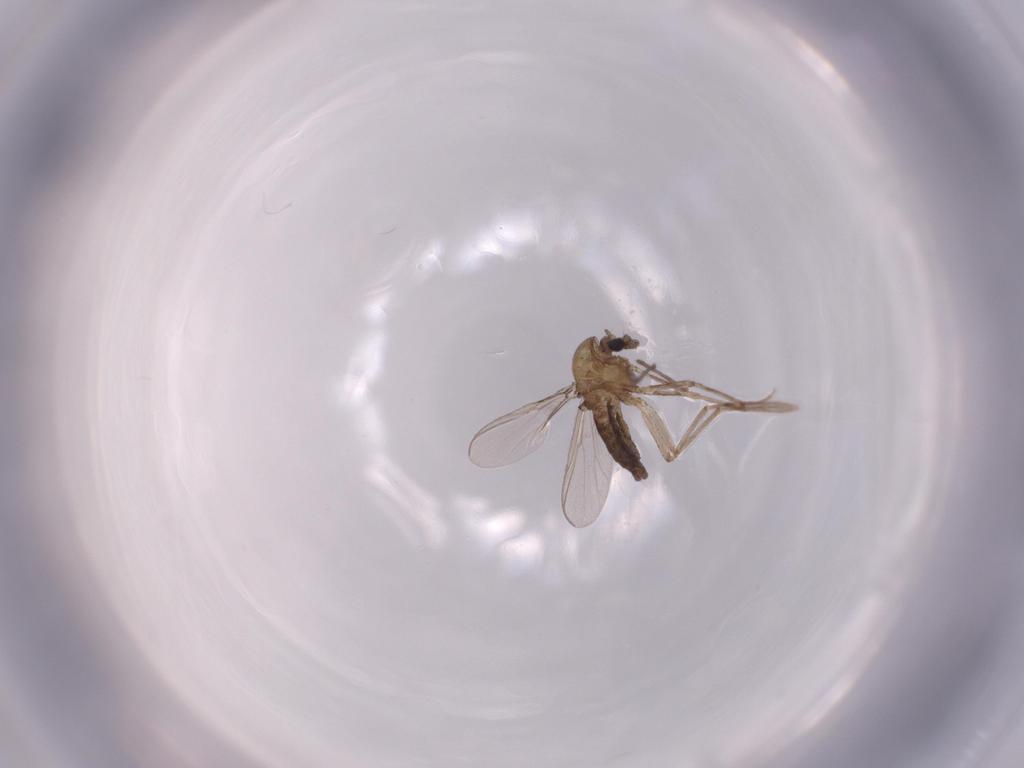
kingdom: Animalia
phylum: Arthropoda
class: Insecta
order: Diptera
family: Chironomidae
